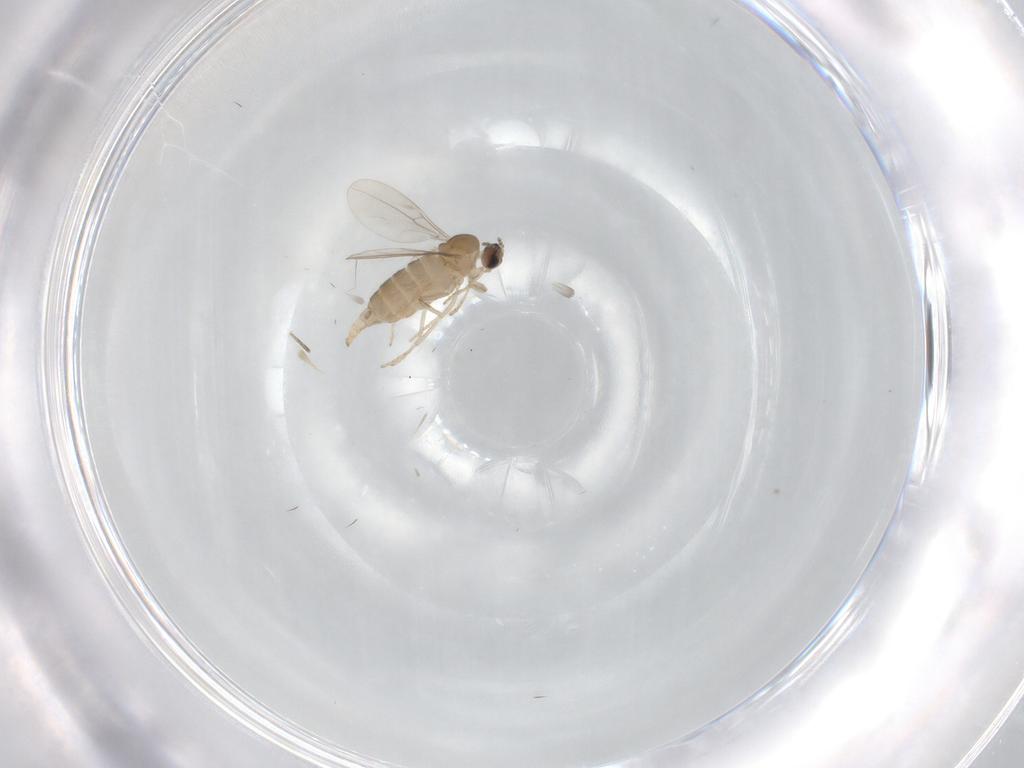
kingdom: Animalia
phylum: Arthropoda
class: Insecta
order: Diptera
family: Cecidomyiidae
